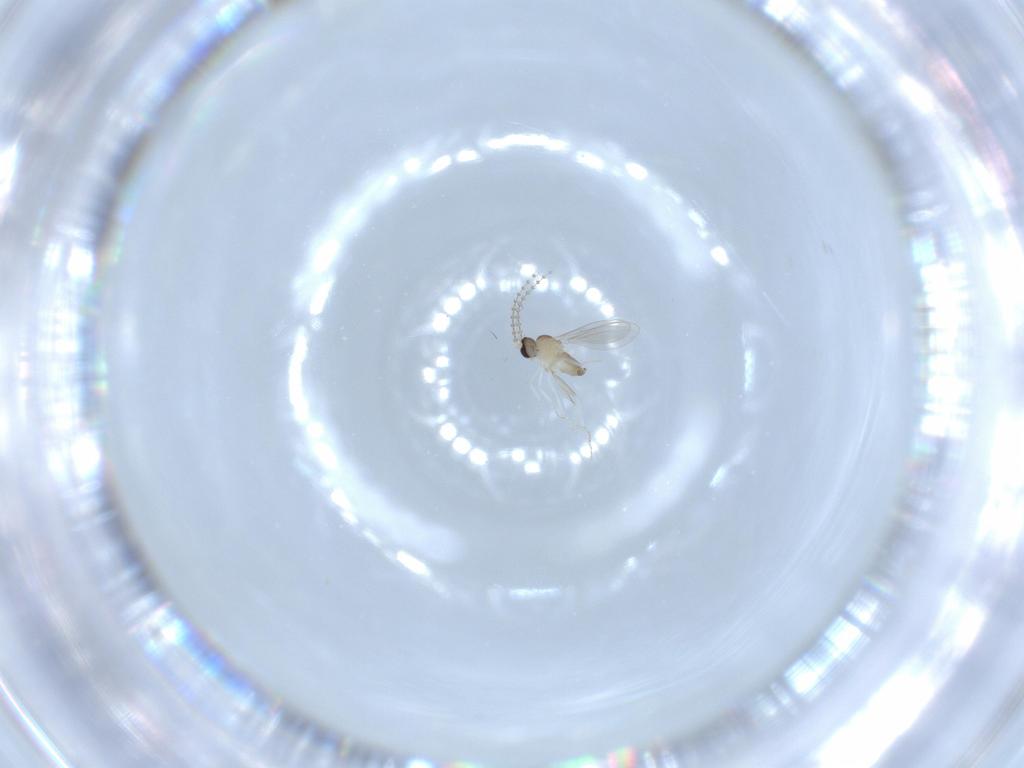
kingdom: Animalia
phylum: Arthropoda
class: Insecta
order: Diptera
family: Cecidomyiidae
